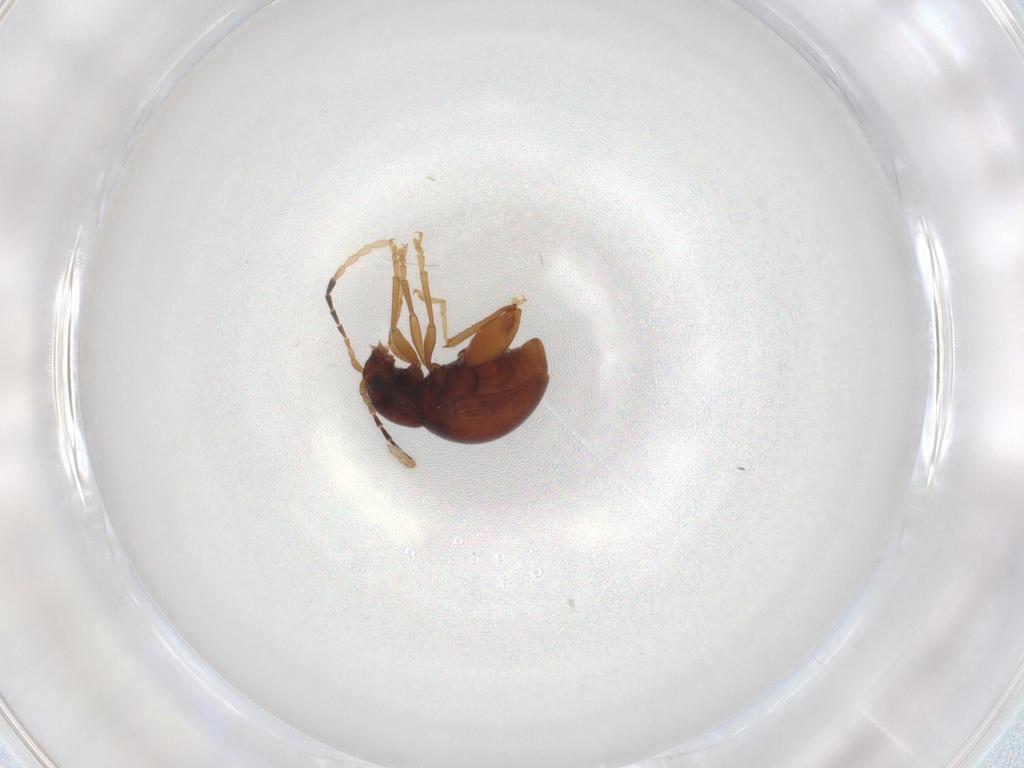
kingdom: Animalia
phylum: Arthropoda
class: Insecta
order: Coleoptera
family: Chrysomelidae
